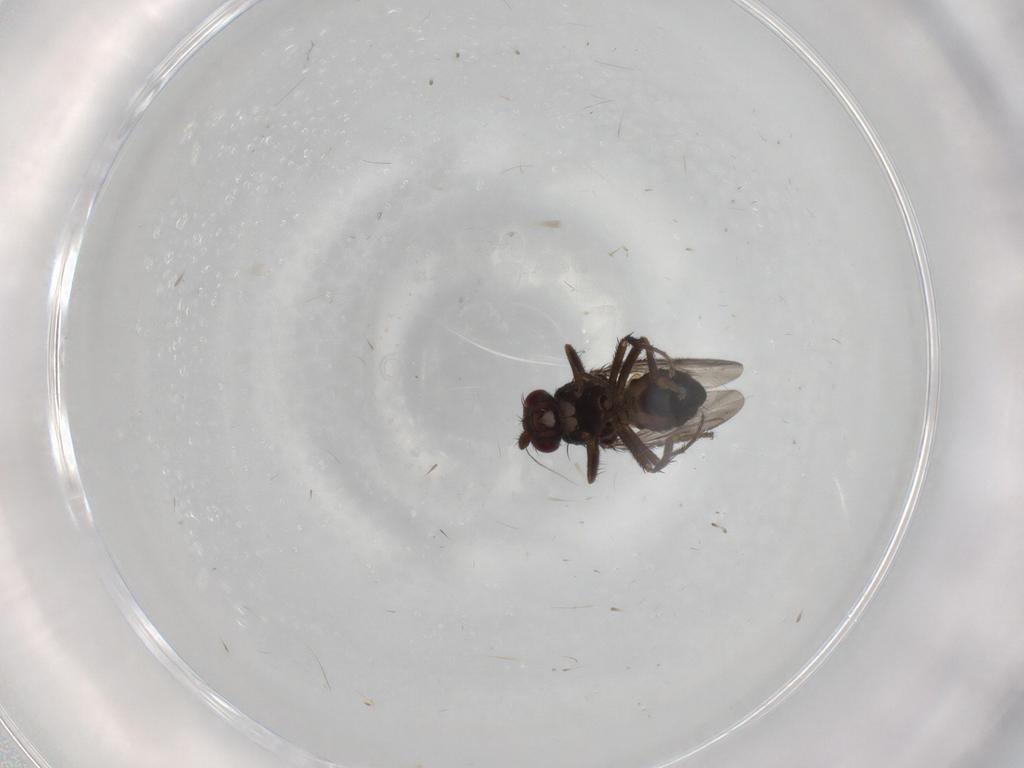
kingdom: Animalia
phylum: Arthropoda
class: Insecta
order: Diptera
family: Sphaeroceridae
